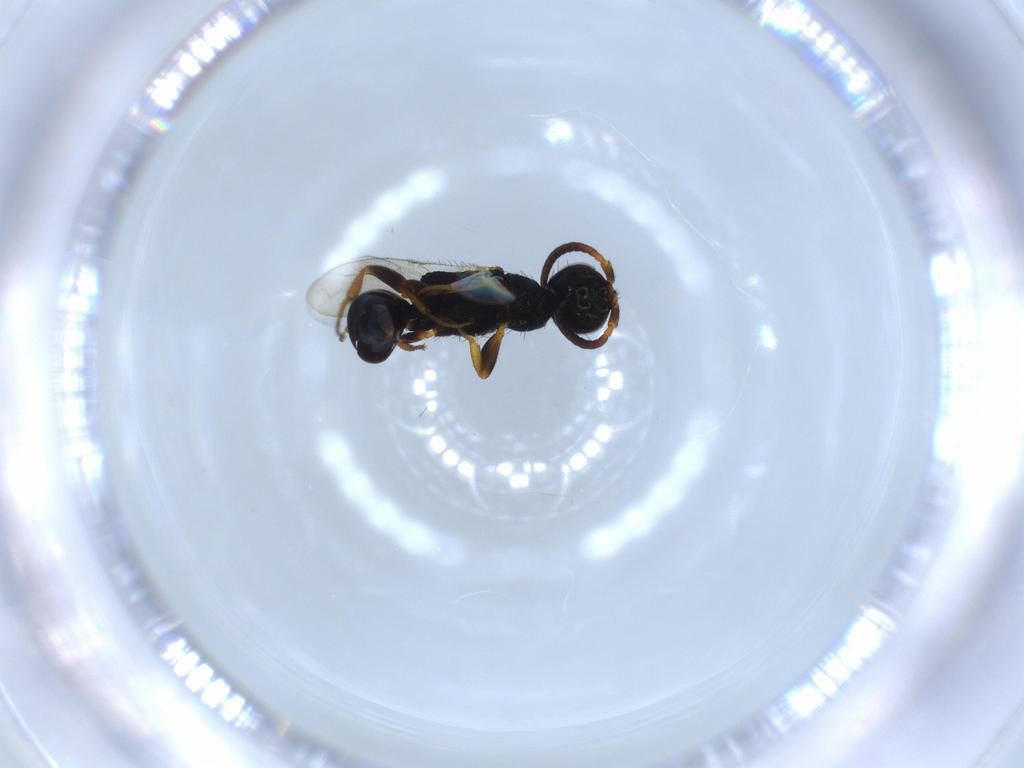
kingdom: Animalia
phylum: Arthropoda
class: Insecta
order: Hymenoptera
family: Bethylidae
